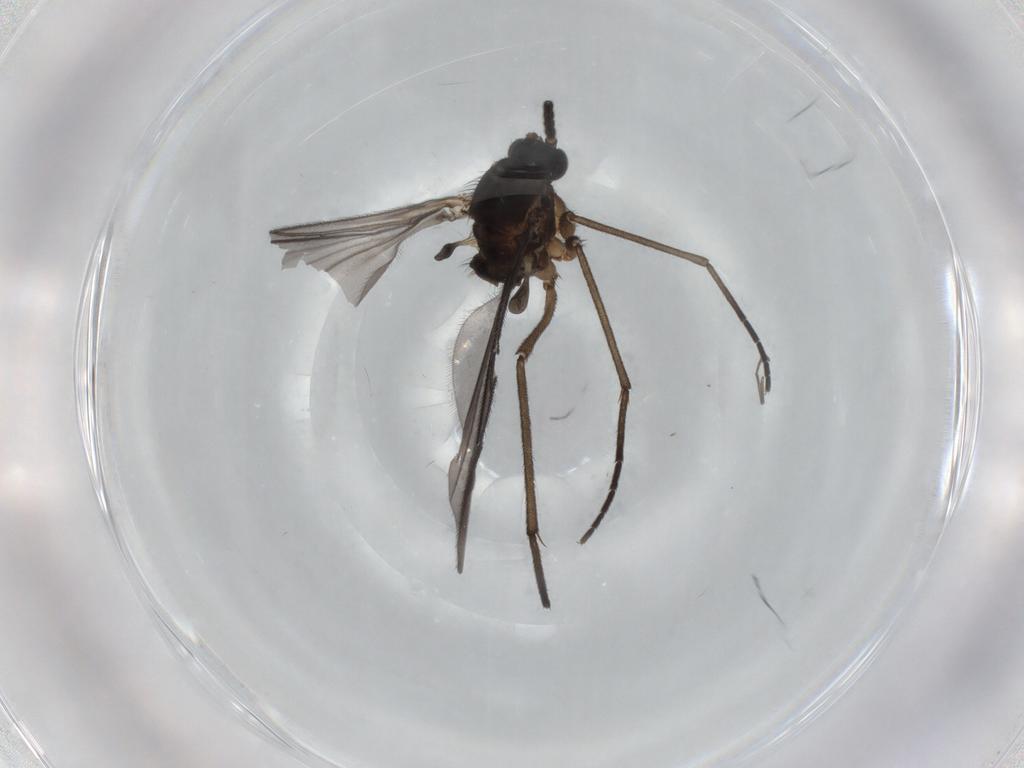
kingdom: Animalia
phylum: Arthropoda
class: Insecta
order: Diptera
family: Sciaridae
